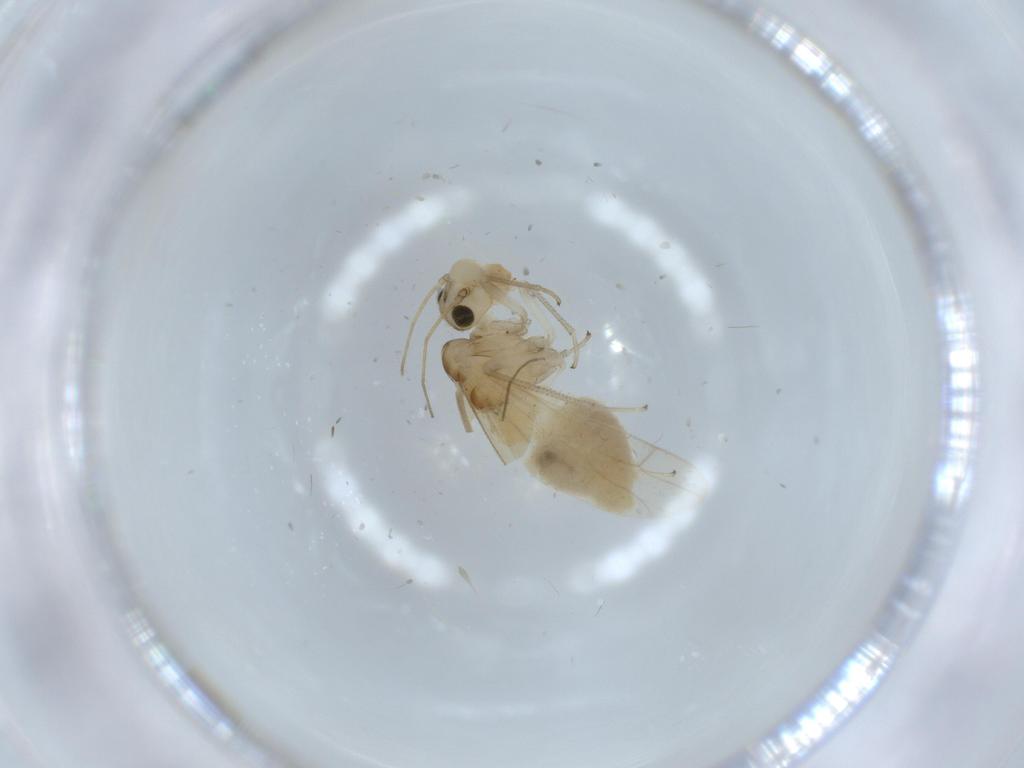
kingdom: Animalia
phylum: Arthropoda
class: Insecta
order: Psocodea
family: Caeciliusidae
